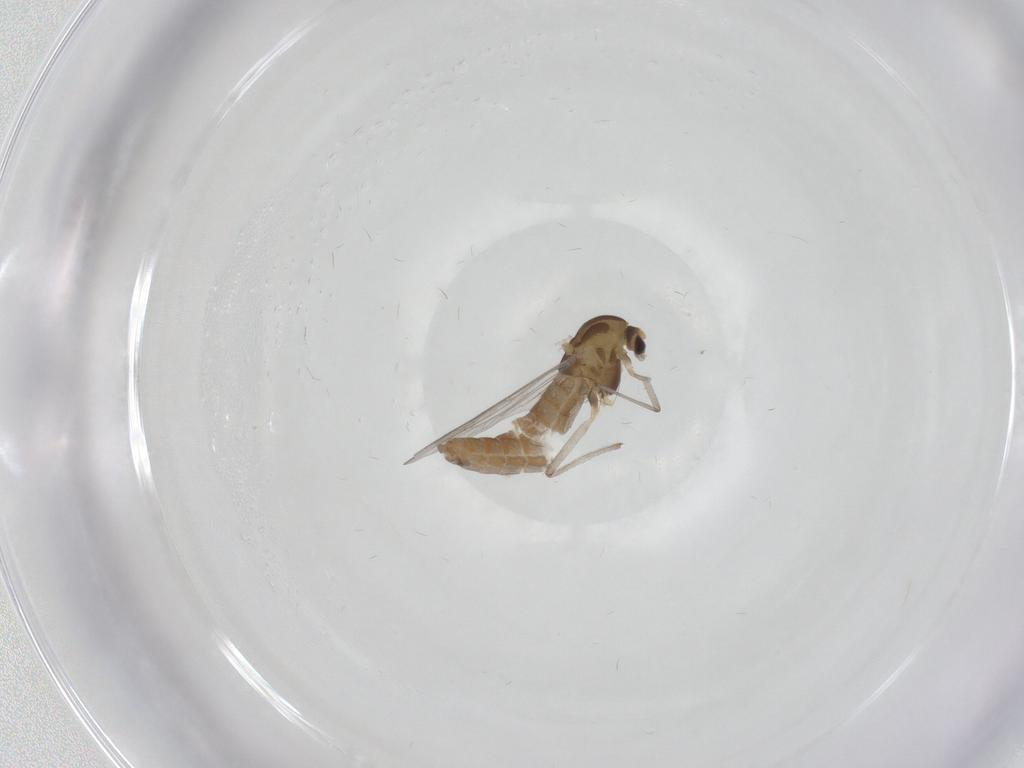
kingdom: Animalia
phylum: Arthropoda
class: Insecta
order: Diptera
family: Chironomidae
